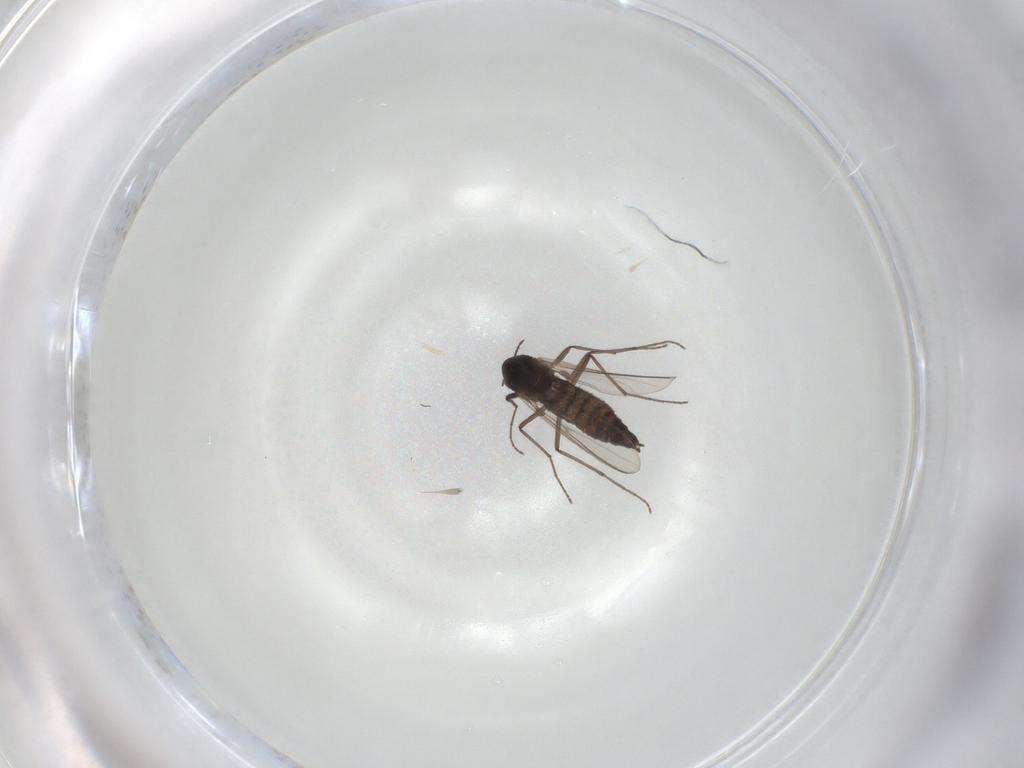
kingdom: Animalia
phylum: Arthropoda
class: Insecta
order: Diptera
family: Chironomidae
